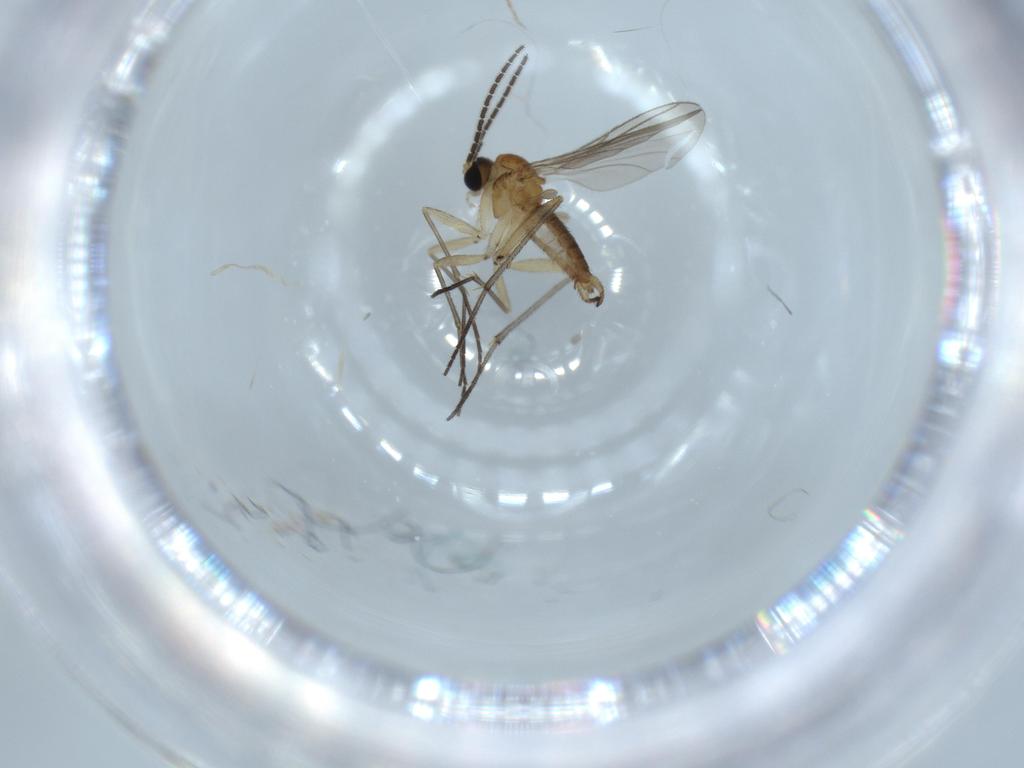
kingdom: Animalia
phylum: Arthropoda
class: Insecta
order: Diptera
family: Sciaridae
